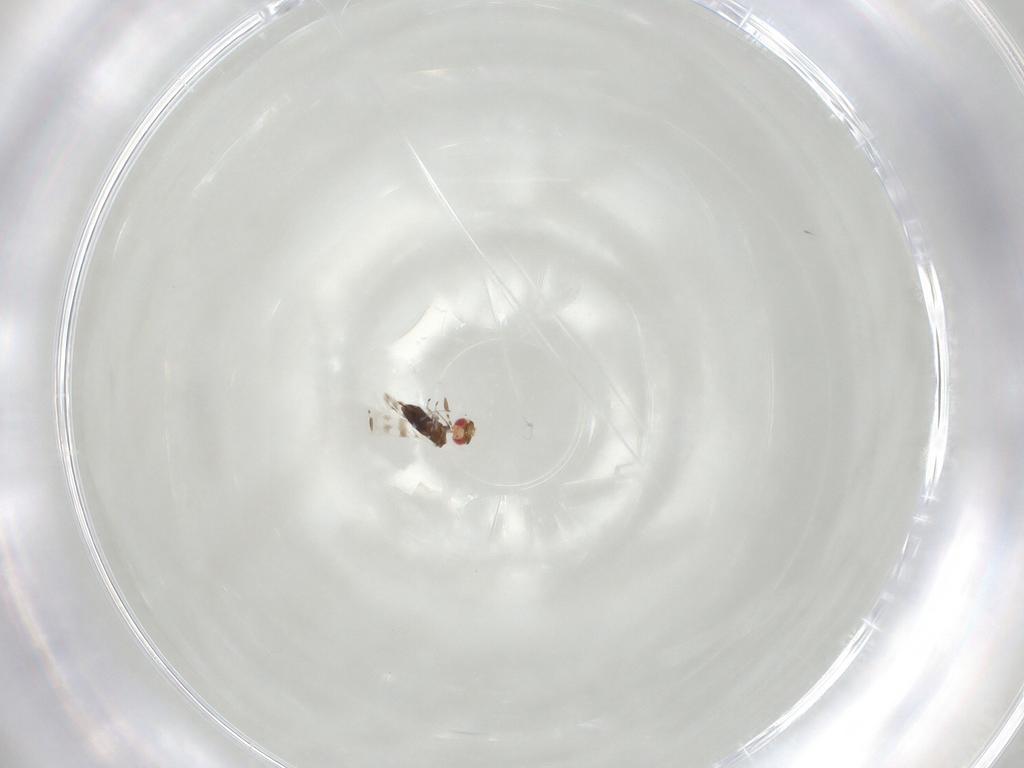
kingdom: Animalia
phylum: Arthropoda
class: Insecta
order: Hymenoptera
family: Azotidae
